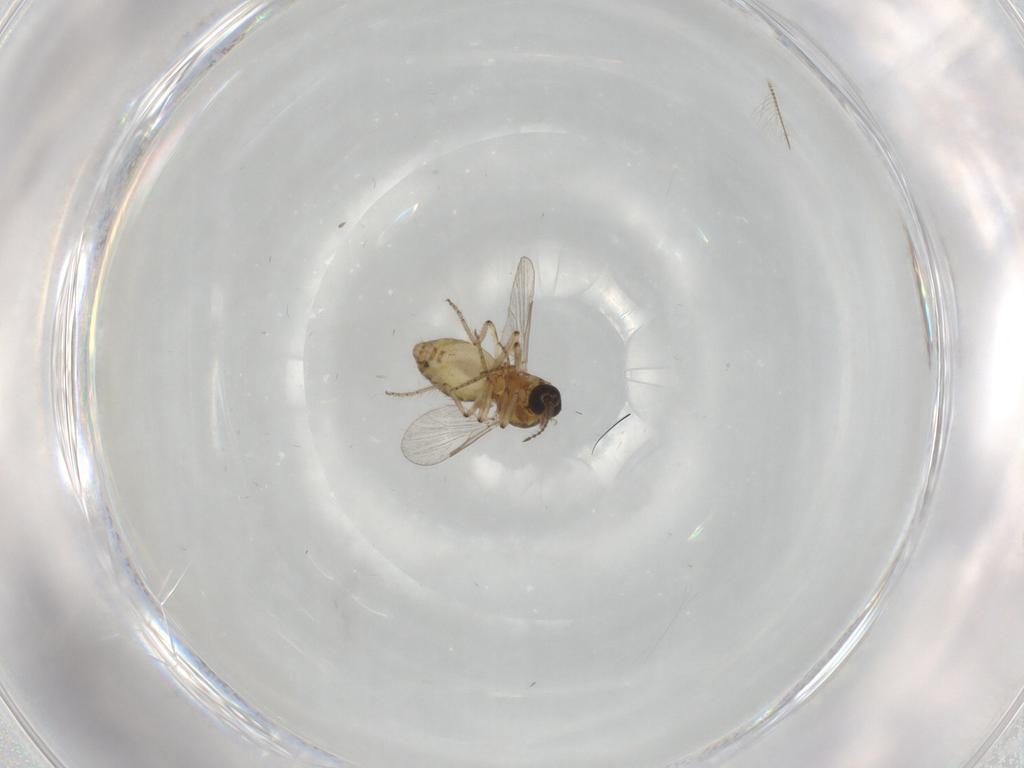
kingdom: Animalia
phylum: Arthropoda
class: Insecta
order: Diptera
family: Ceratopogonidae
